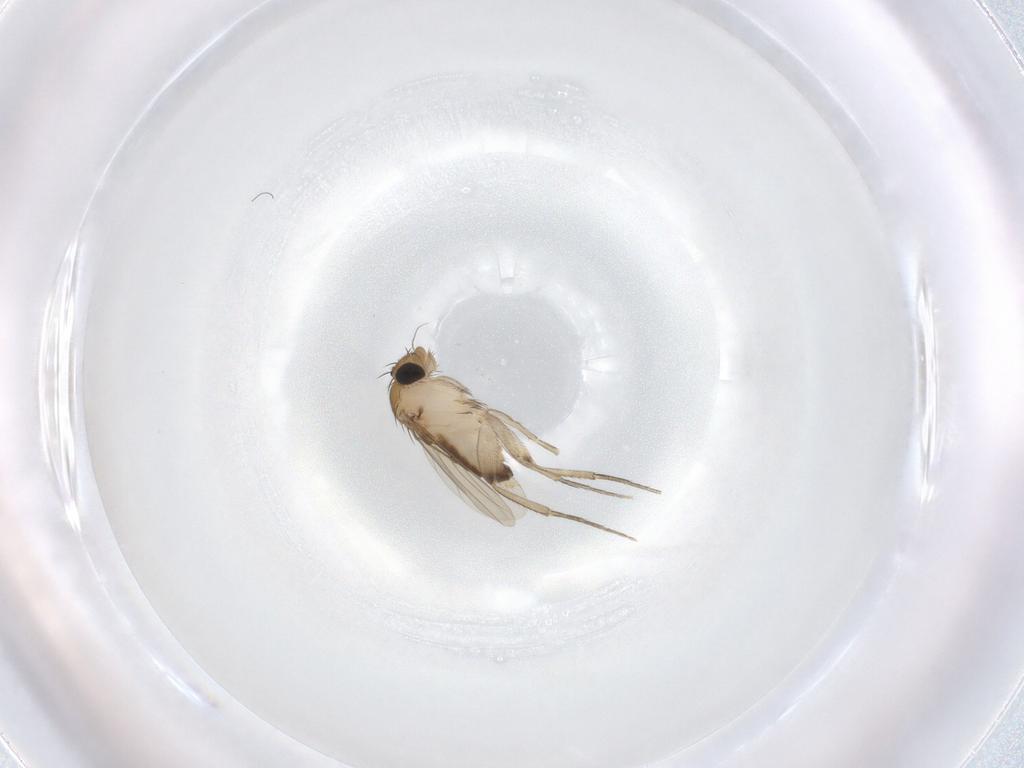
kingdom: Animalia
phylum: Arthropoda
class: Insecta
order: Diptera
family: Phoridae
